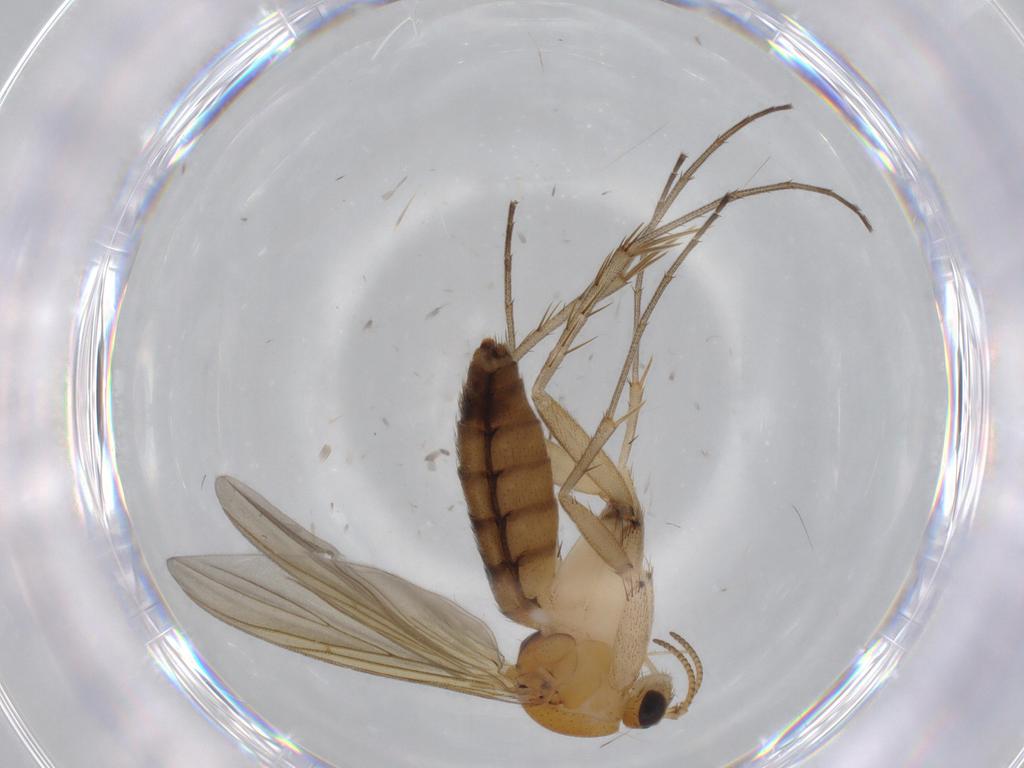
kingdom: Animalia
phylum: Arthropoda
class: Insecta
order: Diptera
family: Mycetophilidae
